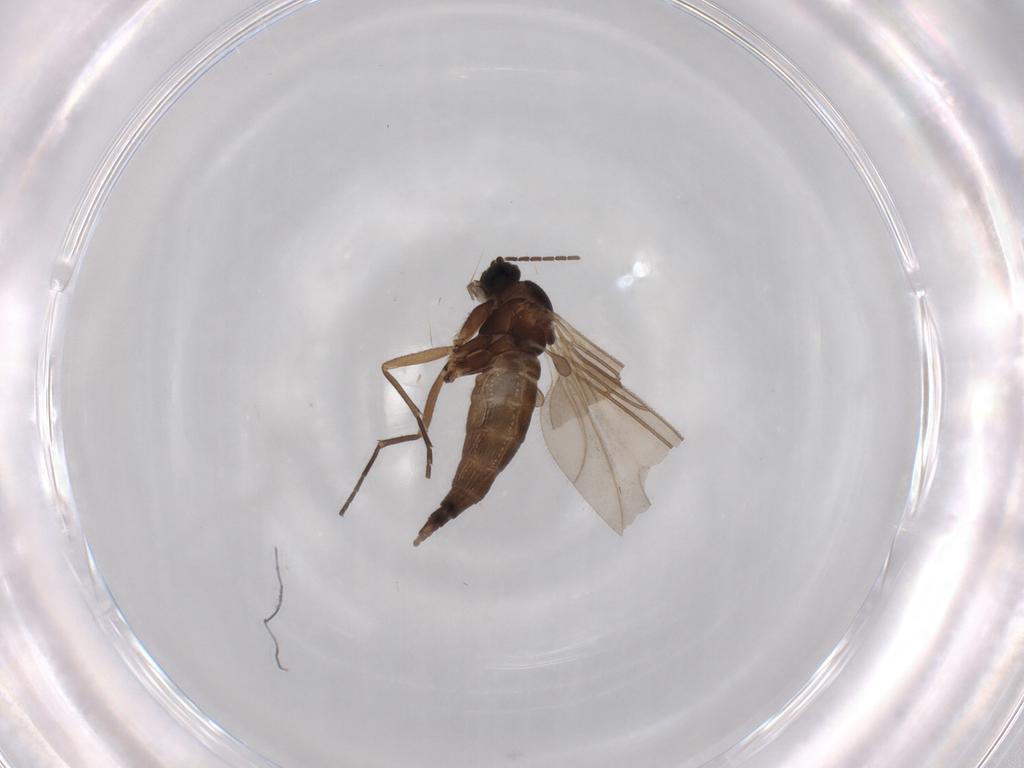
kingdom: Animalia
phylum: Arthropoda
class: Insecta
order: Diptera
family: Sciaridae
